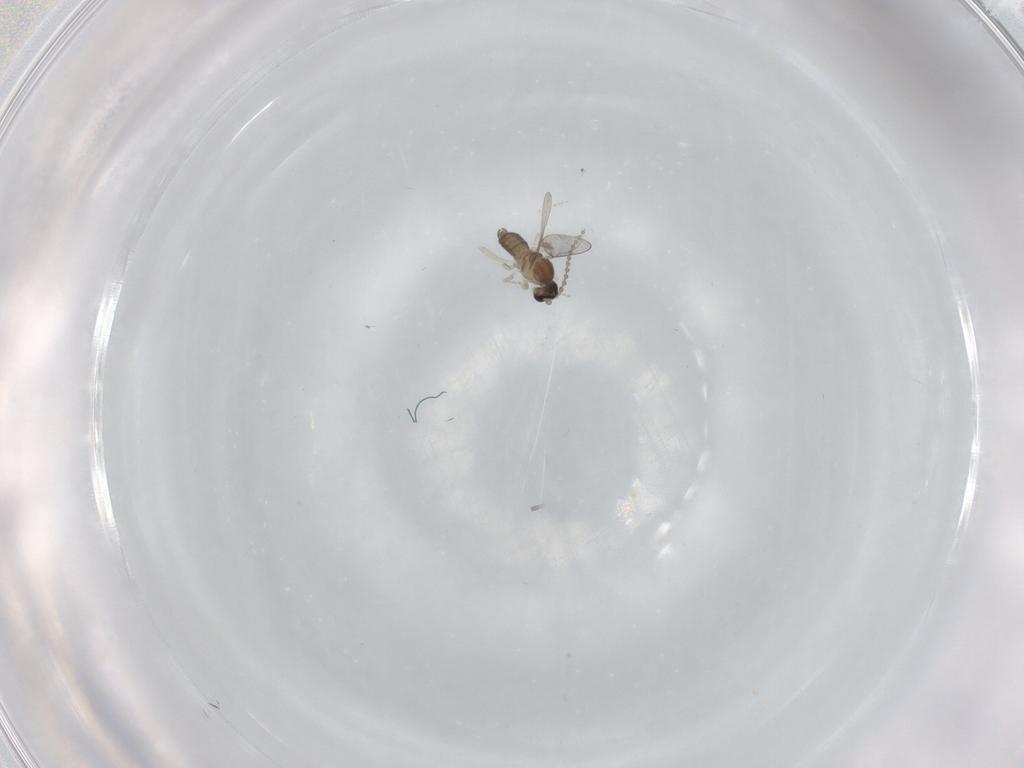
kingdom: Animalia
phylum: Arthropoda
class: Insecta
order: Diptera
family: Cecidomyiidae
